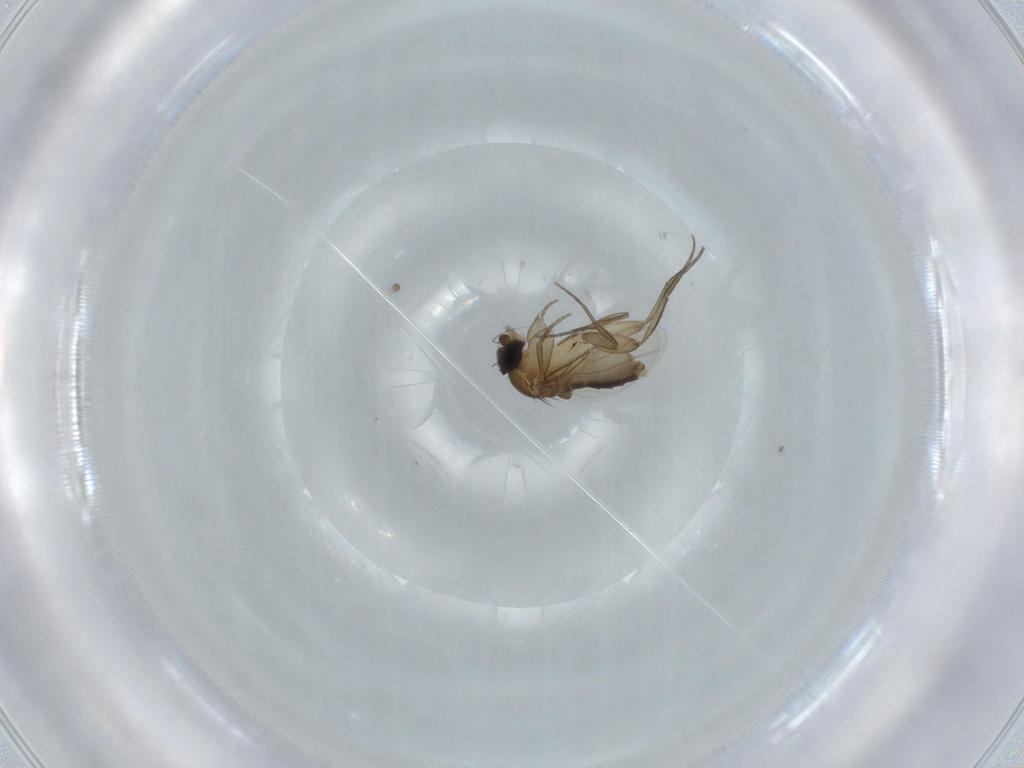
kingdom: Animalia
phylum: Arthropoda
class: Insecta
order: Diptera
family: Phoridae
